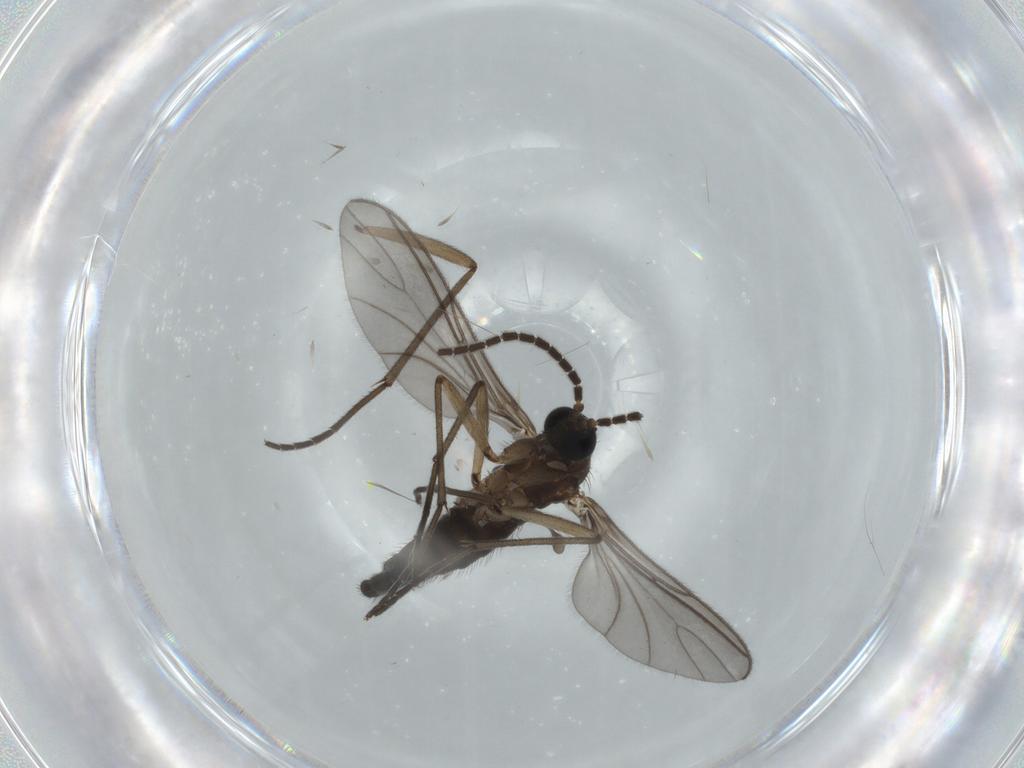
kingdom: Animalia
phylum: Arthropoda
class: Insecta
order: Diptera
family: Sciaridae
